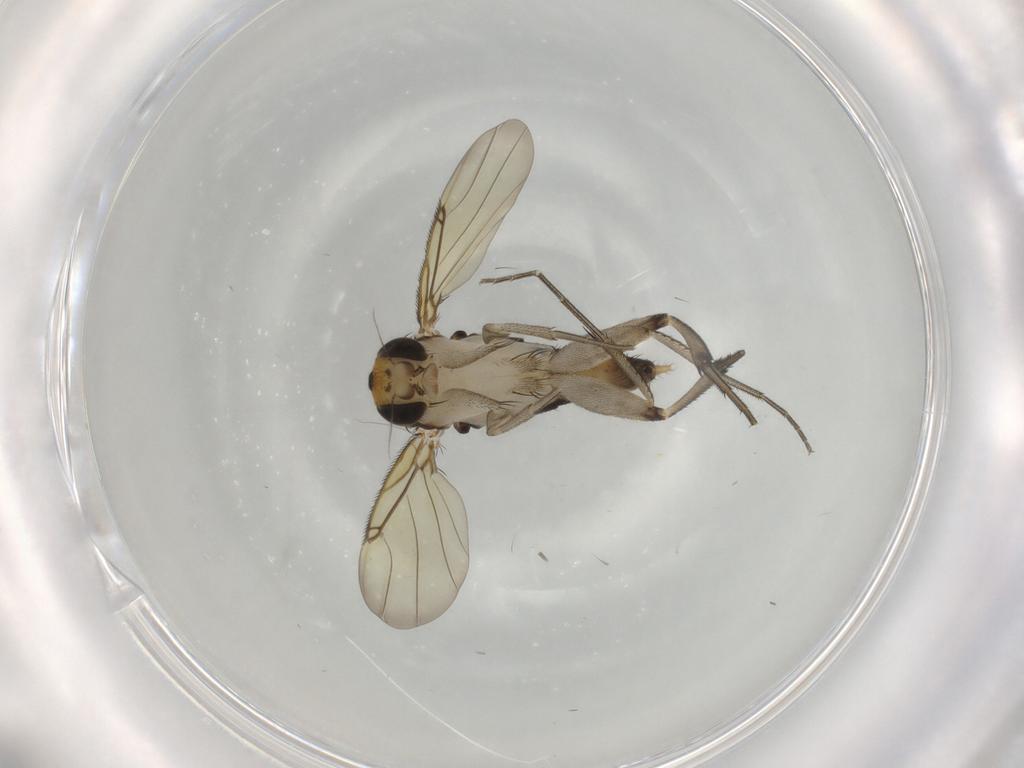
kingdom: Animalia
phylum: Arthropoda
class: Insecta
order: Diptera
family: Phoridae
